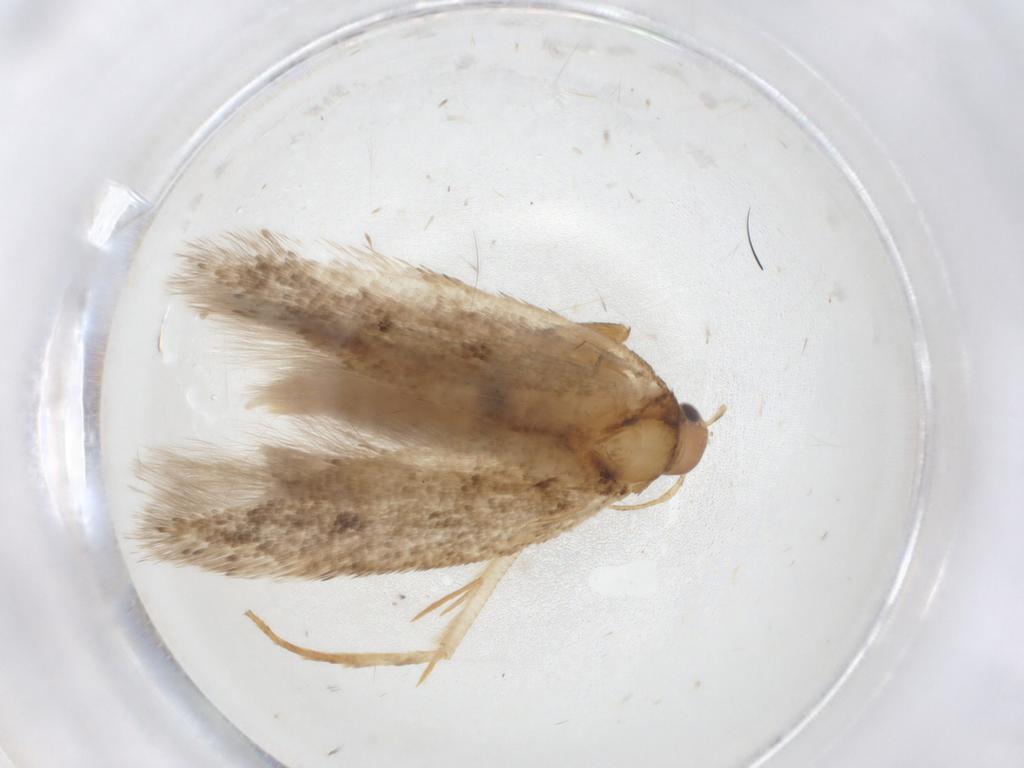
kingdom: Animalia
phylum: Arthropoda
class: Insecta
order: Lepidoptera
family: Gelechiidae
